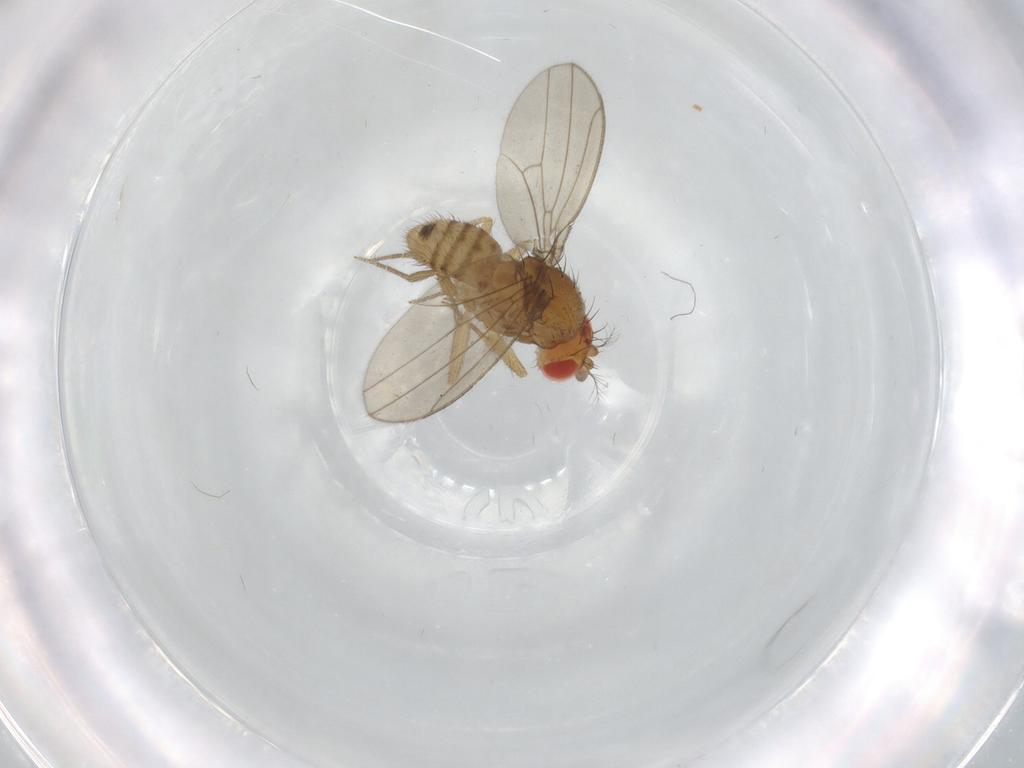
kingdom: Animalia
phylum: Arthropoda
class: Insecta
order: Diptera
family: Drosophilidae
